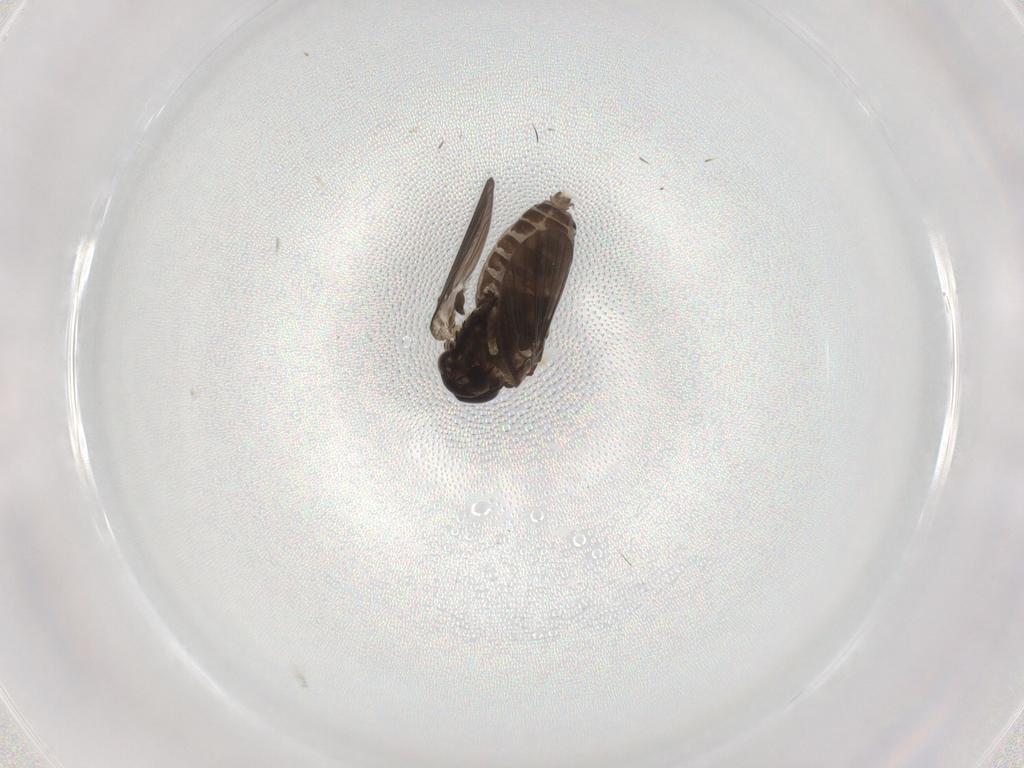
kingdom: Animalia
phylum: Arthropoda
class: Insecta
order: Diptera
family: Psychodidae
